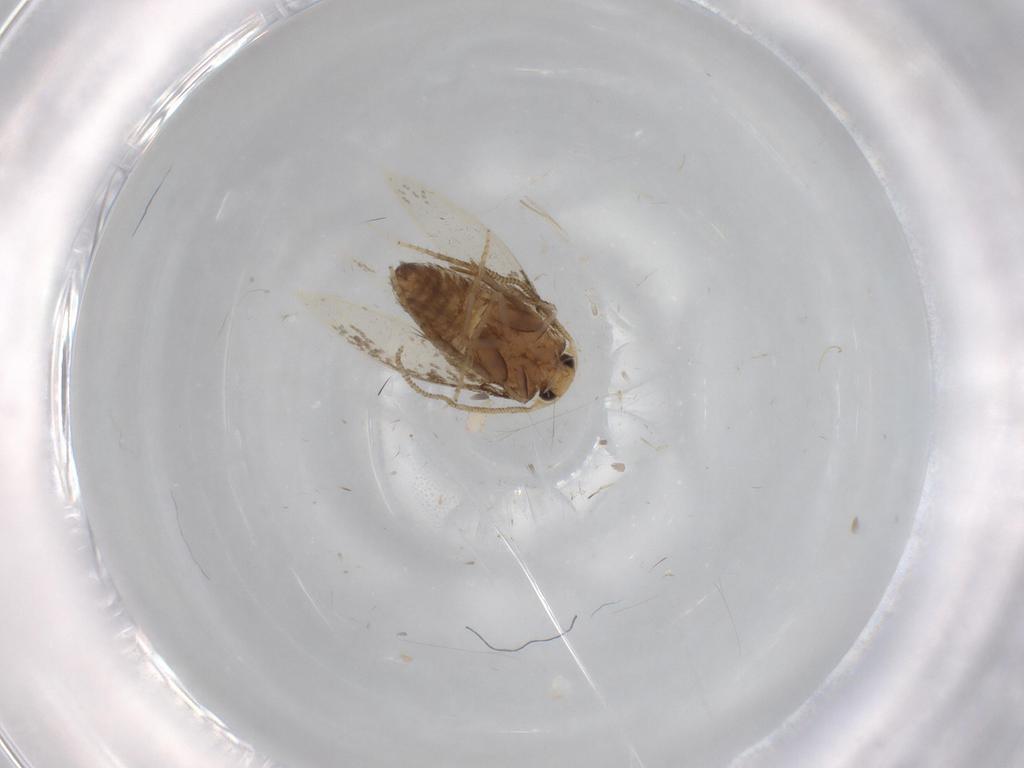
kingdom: Animalia
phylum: Arthropoda
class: Insecta
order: Lepidoptera
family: Nepticulidae
